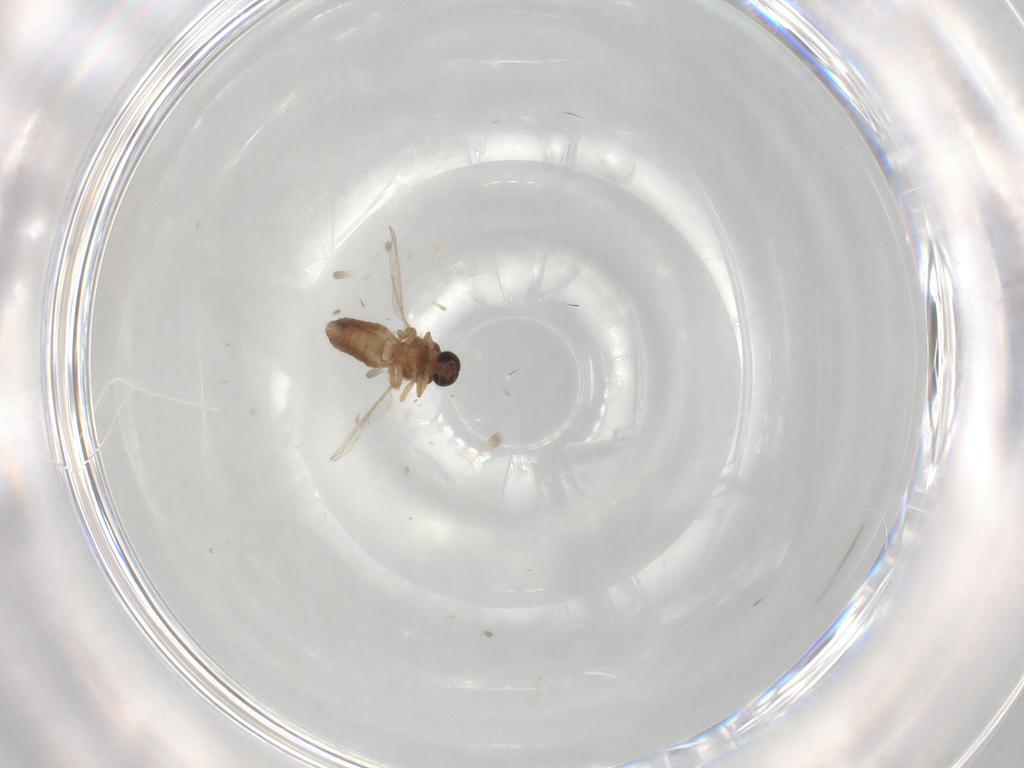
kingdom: Animalia
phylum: Arthropoda
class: Insecta
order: Diptera
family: Ceratopogonidae
